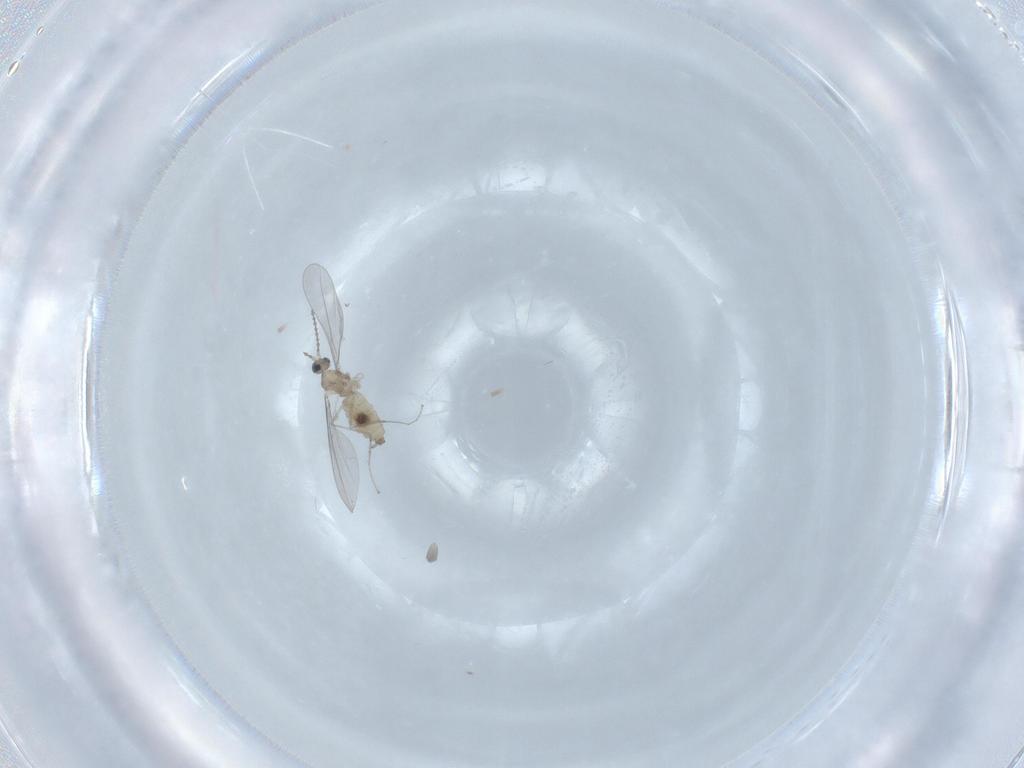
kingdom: Animalia
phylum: Arthropoda
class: Insecta
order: Diptera
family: Cecidomyiidae
